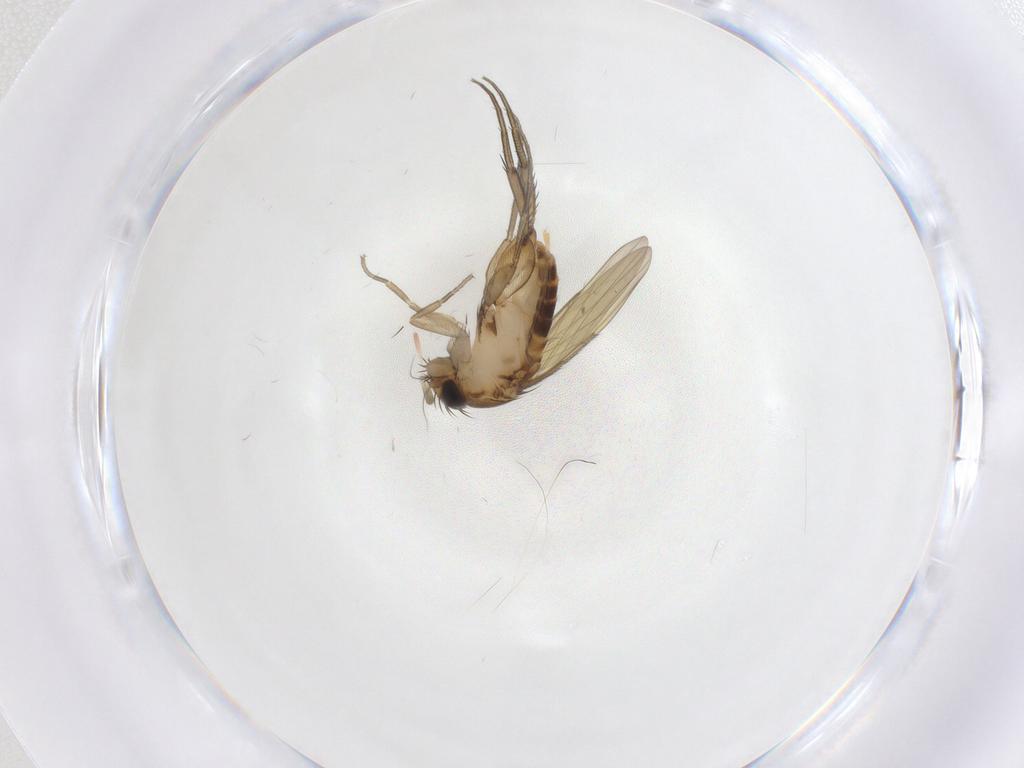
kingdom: Animalia
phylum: Arthropoda
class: Insecta
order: Diptera
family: Phoridae
